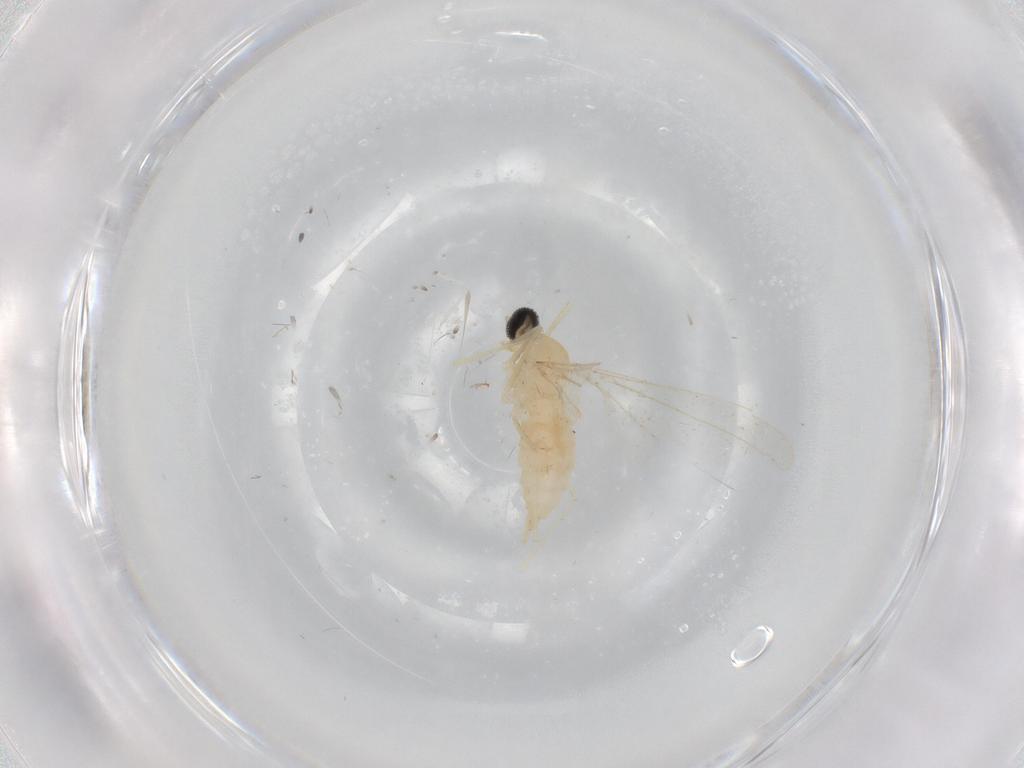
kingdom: Animalia
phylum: Arthropoda
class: Insecta
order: Diptera
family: Cecidomyiidae
